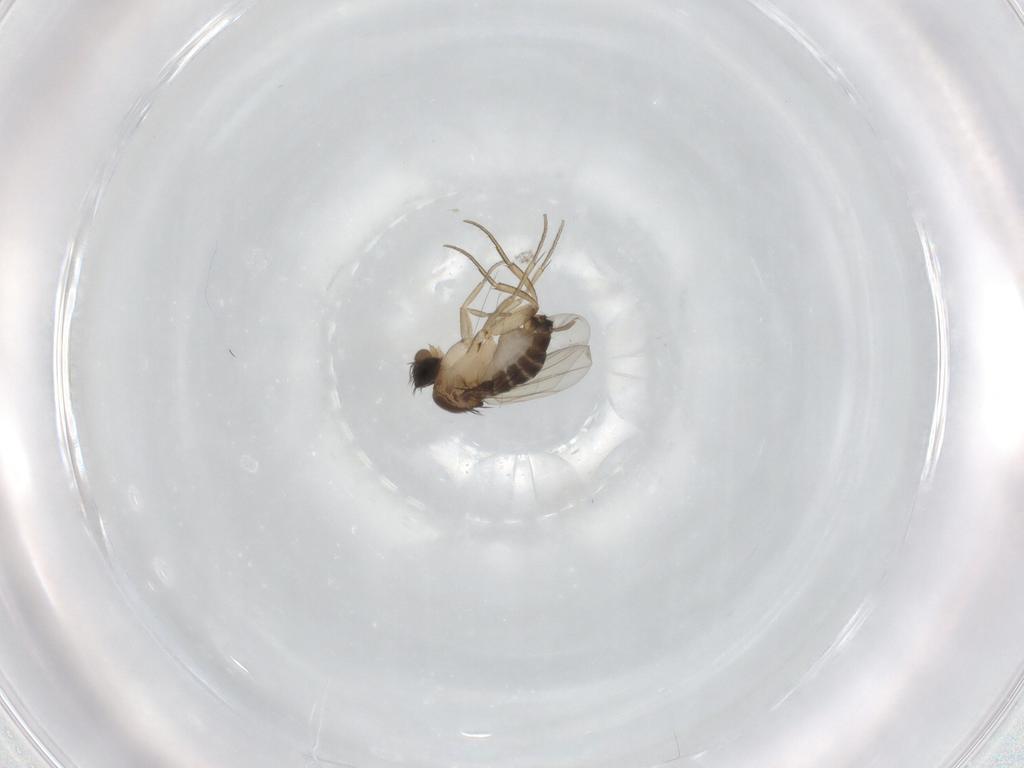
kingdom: Animalia
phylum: Arthropoda
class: Insecta
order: Diptera
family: Phoridae
